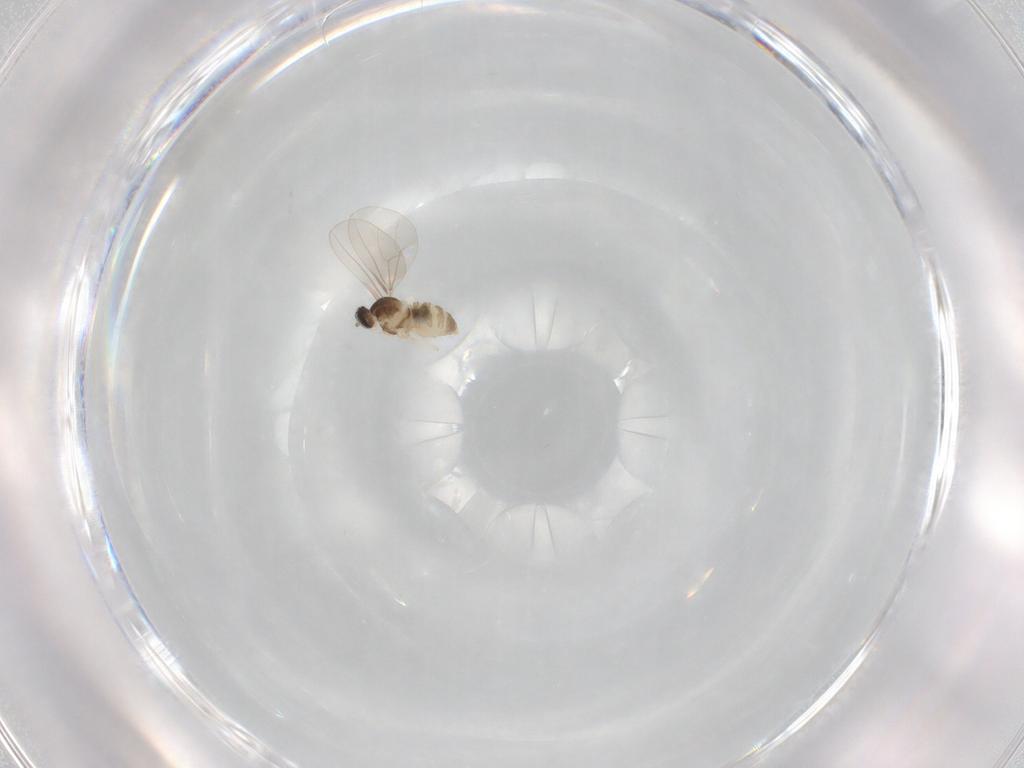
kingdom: Animalia
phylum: Arthropoda
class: Insecta
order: Diptera
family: Cecidomyiidae
